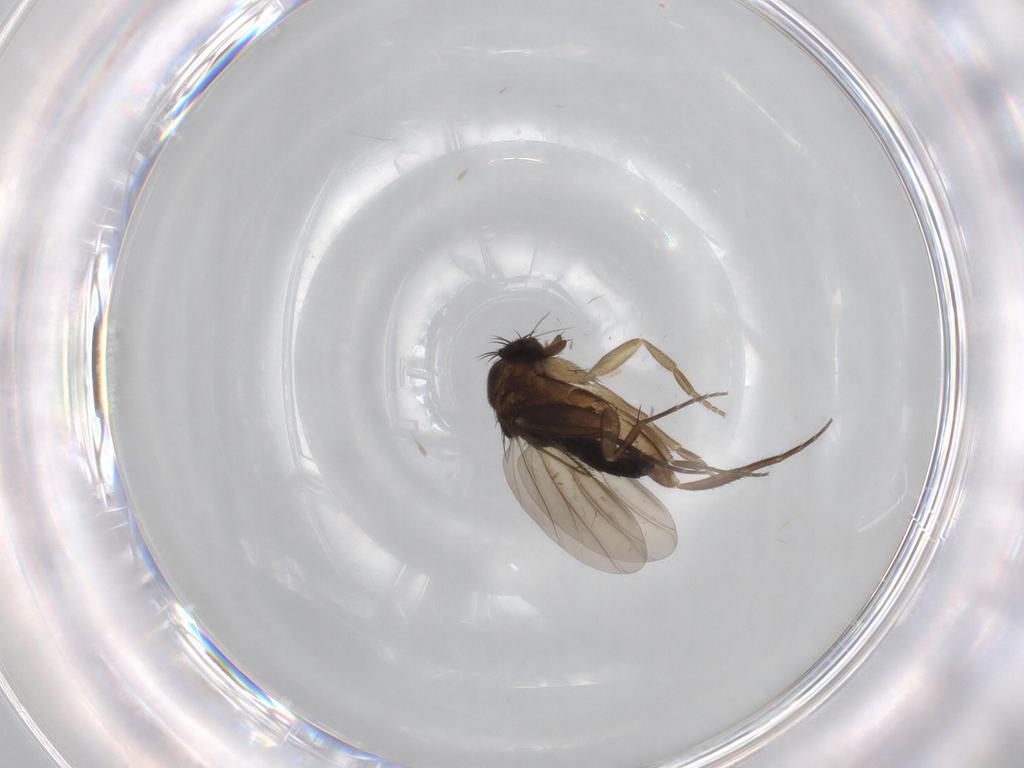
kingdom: Animalia
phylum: Arthropoda
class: Insecta
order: Diptera
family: Phoridae
